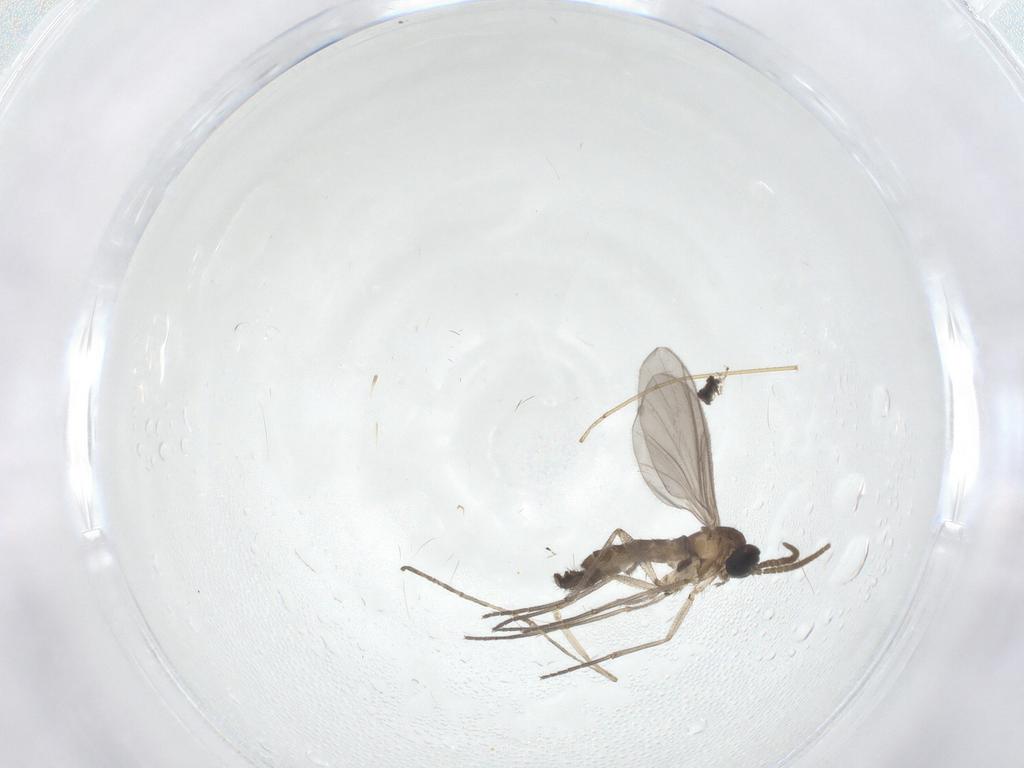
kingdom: Animalia
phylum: Arthropoda
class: Insecta
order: Diptera
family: Cecidomyiidae
